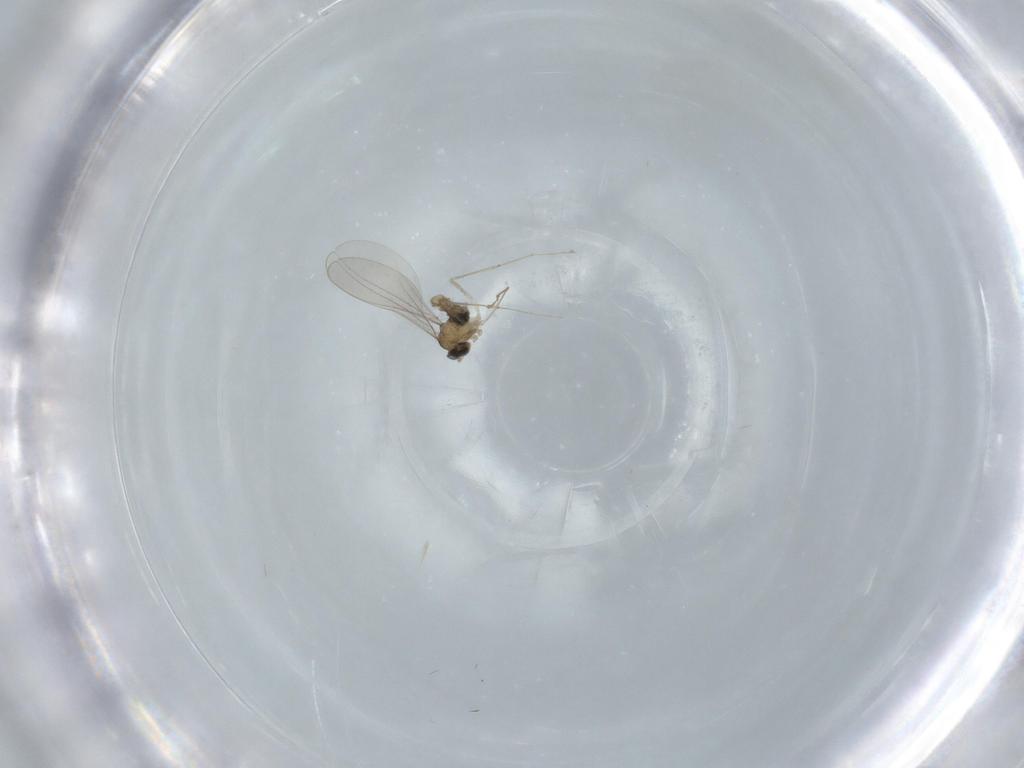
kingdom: Animalia
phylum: Arthropoda
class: Insecta
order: Diptera
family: Cecidomyiidae
